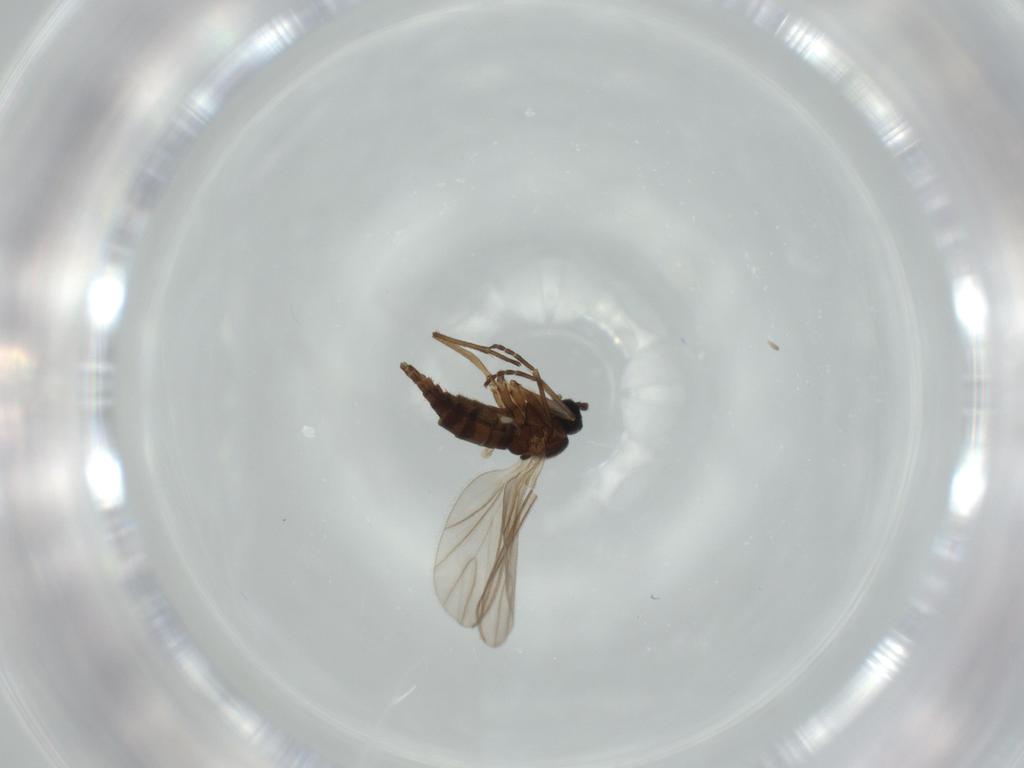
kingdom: Animalia
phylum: Arthropoda
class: Insecta
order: Diptera
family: Sciaridae
